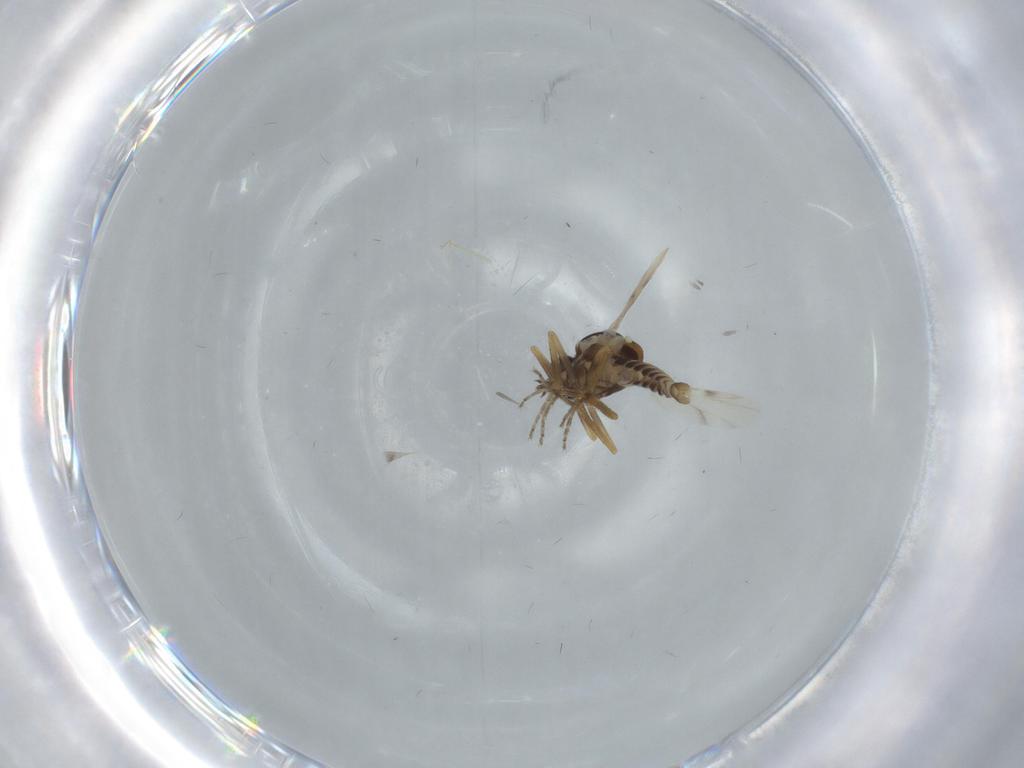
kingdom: Animalia
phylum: Arthropoda
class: Insecta
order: Diptera
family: Ceratopogonidae
